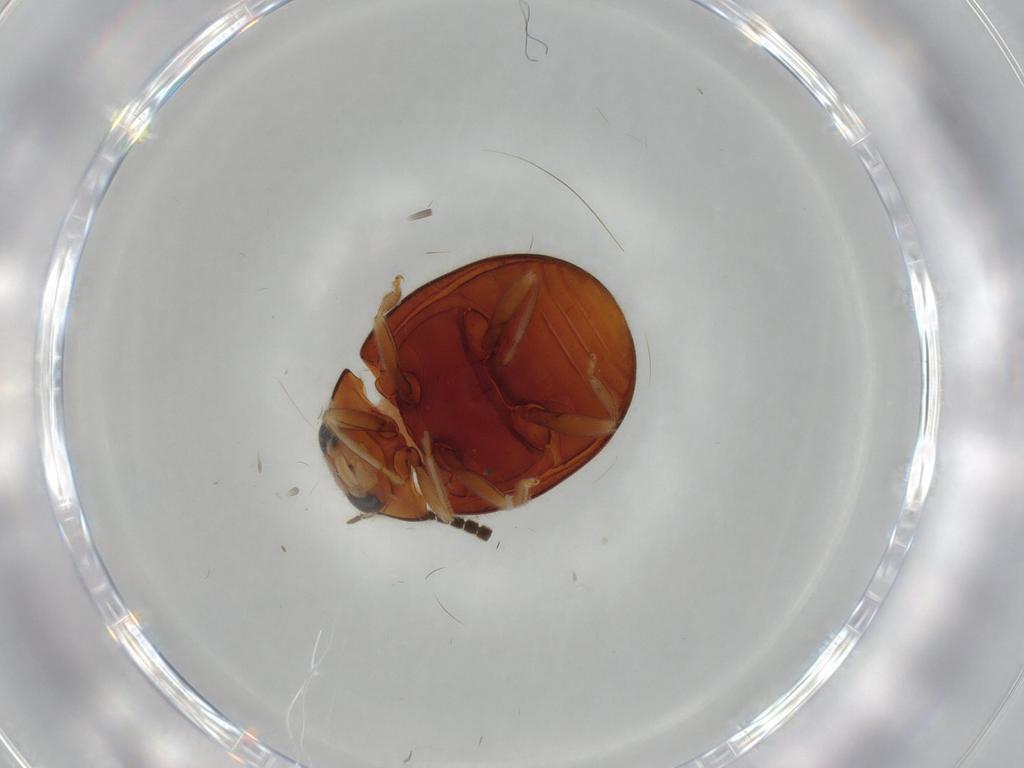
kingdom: Animalia
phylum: Arthropoda
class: Insecta
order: Coleoptera
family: Coccinellidae
